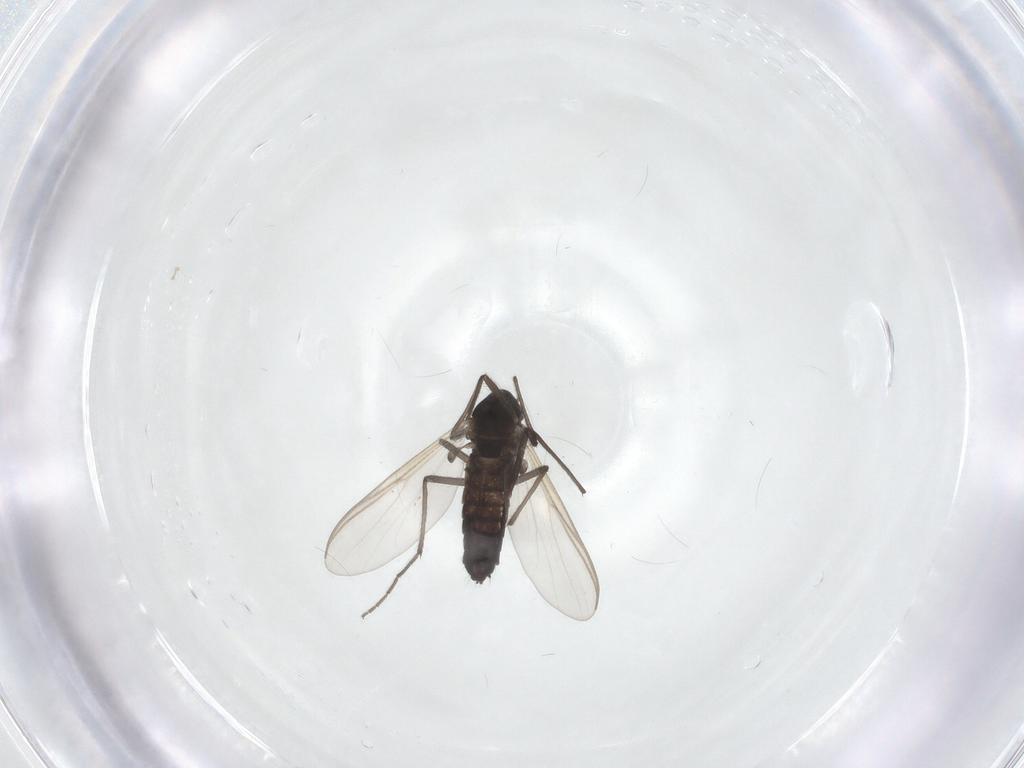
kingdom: Animalia
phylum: Arthropoda
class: Insecta
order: Diptera
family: Chironomidae
